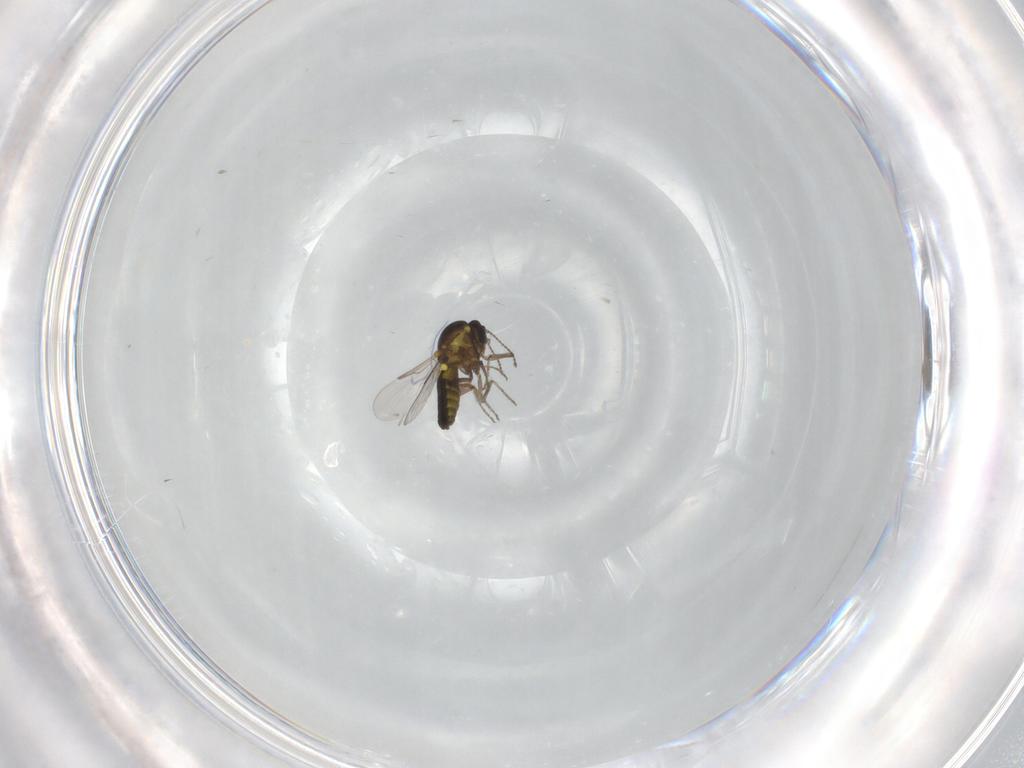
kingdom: Animalia
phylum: Arthropoda
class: Insecta
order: Diptera
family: Ceratopogonidae
